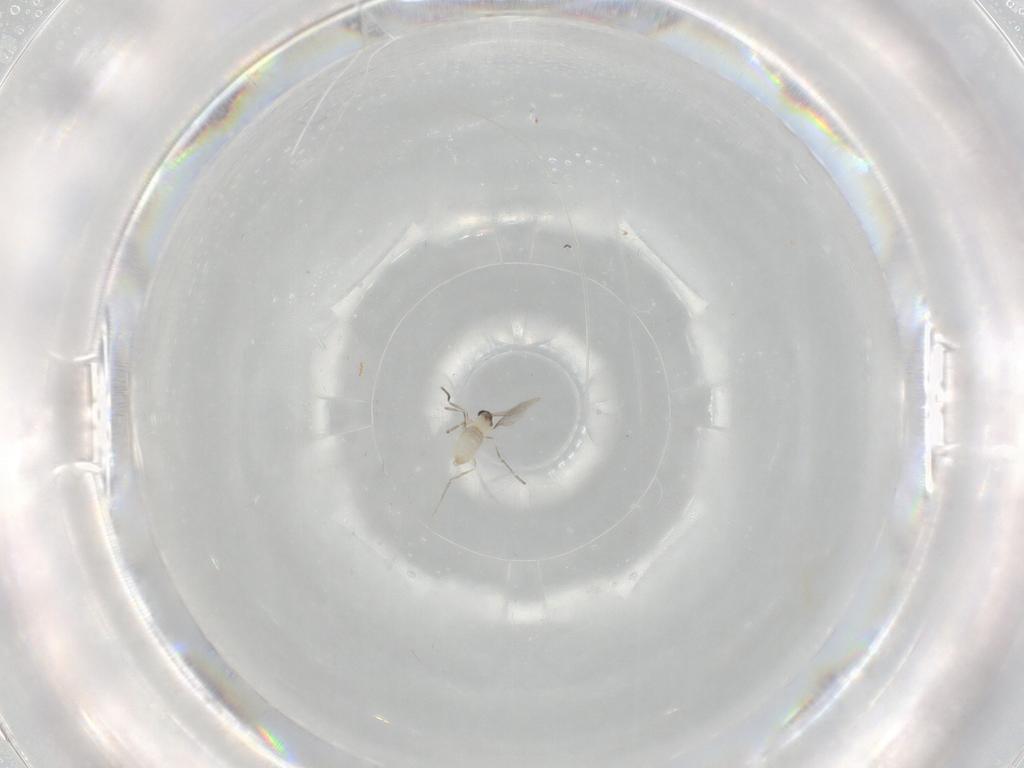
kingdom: Animalia
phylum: Arthropoda
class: Insecta
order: Diptera
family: Cecidomyiidae
